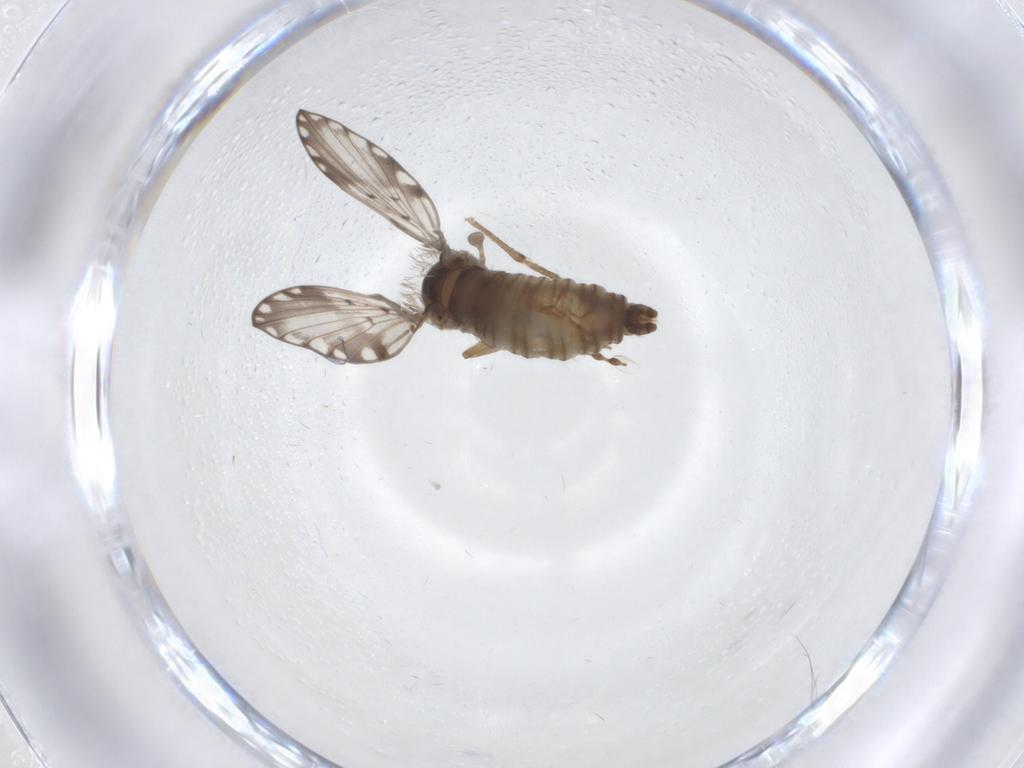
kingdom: Animalia
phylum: Arthropoda
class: Insecta
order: Diptera
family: Psychodidae
